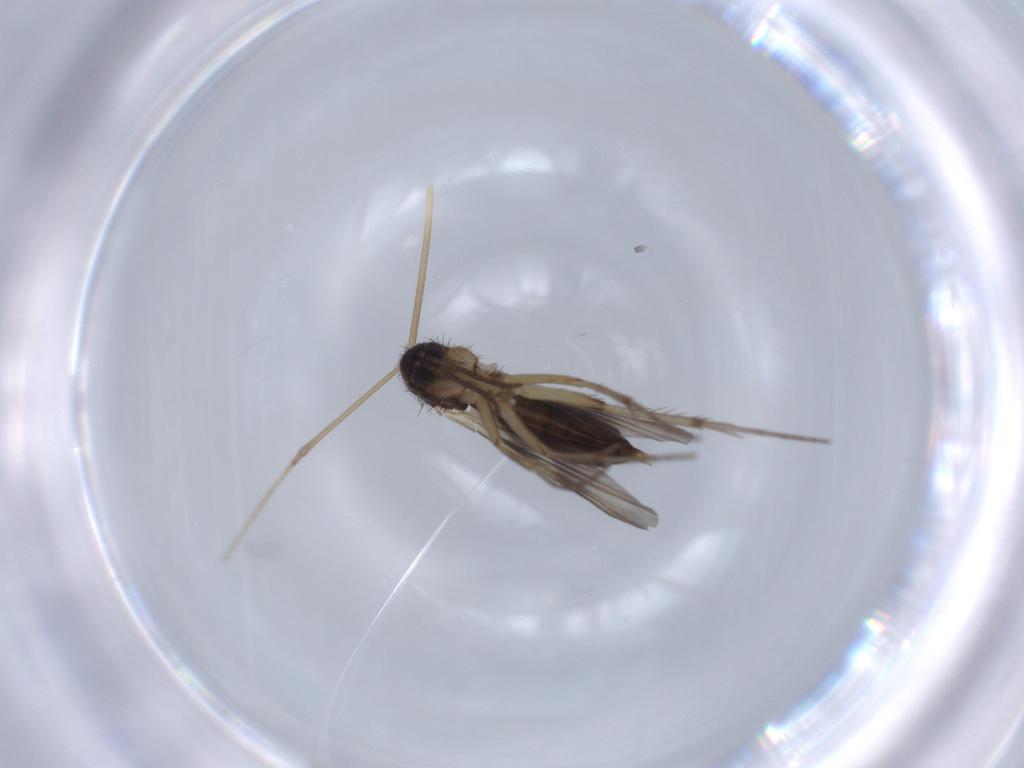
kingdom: Animalia
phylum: Arthropoda
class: Insecta
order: Diptera
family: Cecidomyiidae
